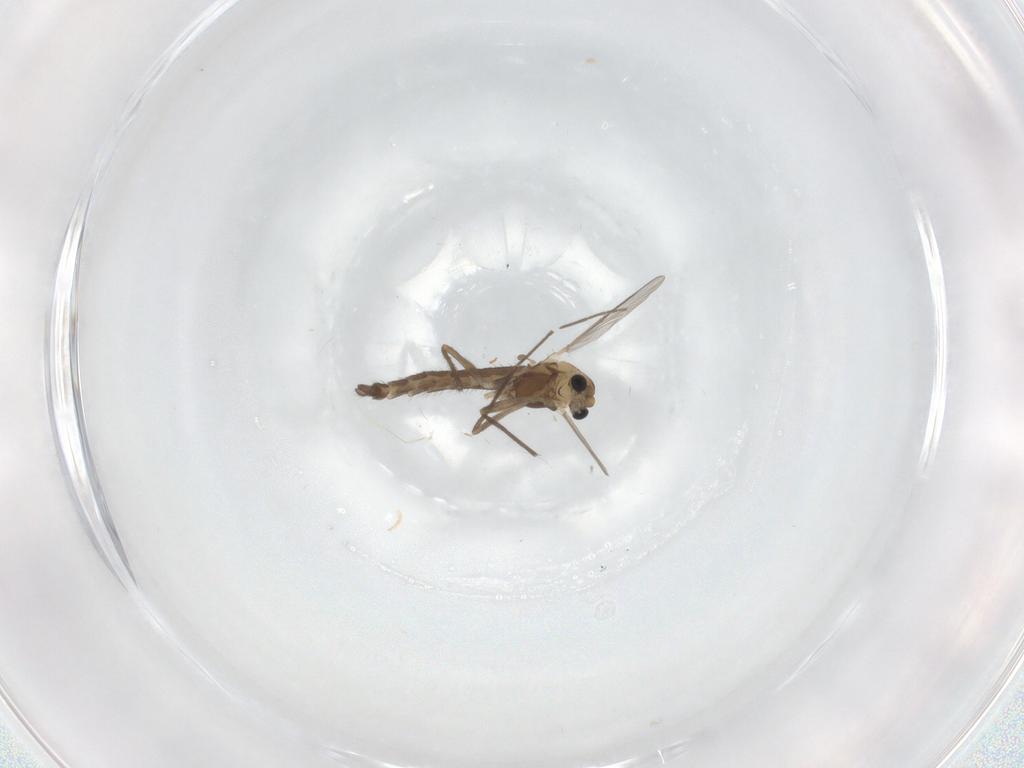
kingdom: Animalia
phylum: Arthropoda
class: Insecta
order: Diptera
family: Chironomidae
